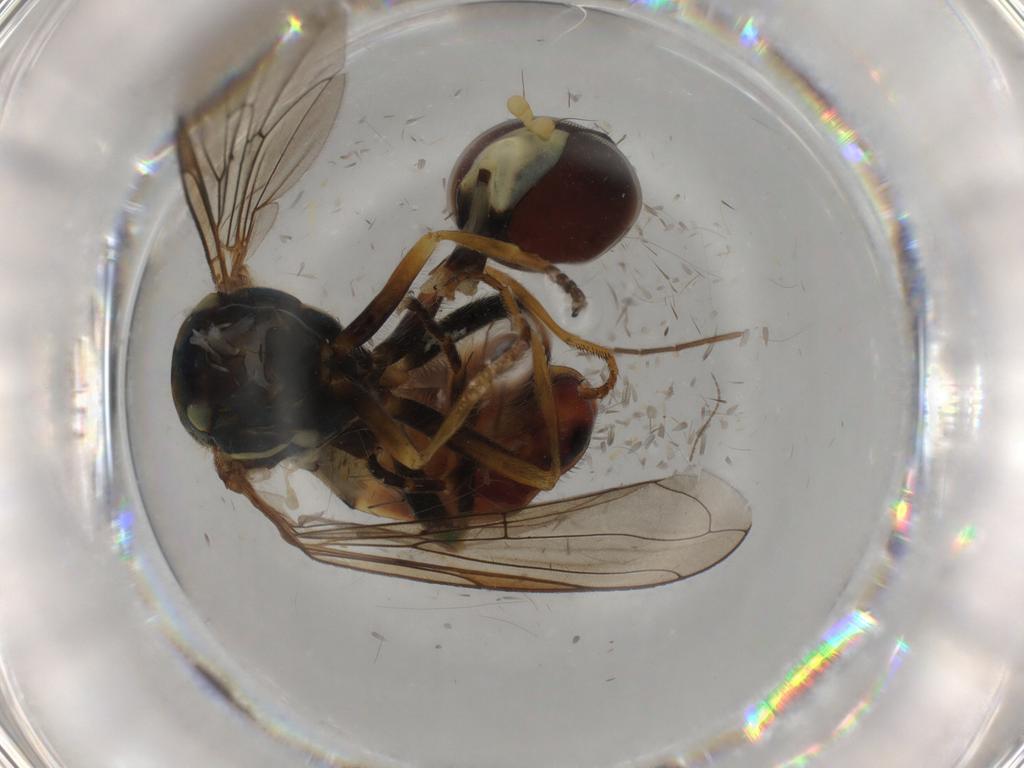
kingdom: Animalia
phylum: Arthropoda
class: Insecta
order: Diptera
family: Syrphidae
